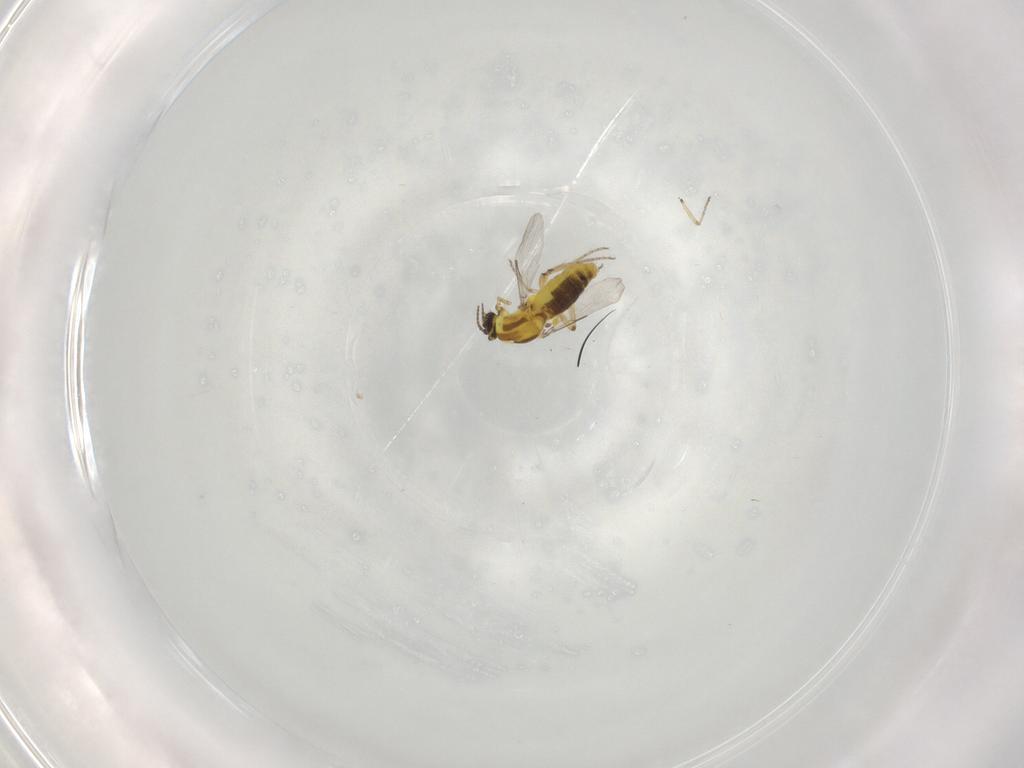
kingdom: Animalia
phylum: Arthropoda
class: Insecta
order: Diptera
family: Ceratopogonidae
